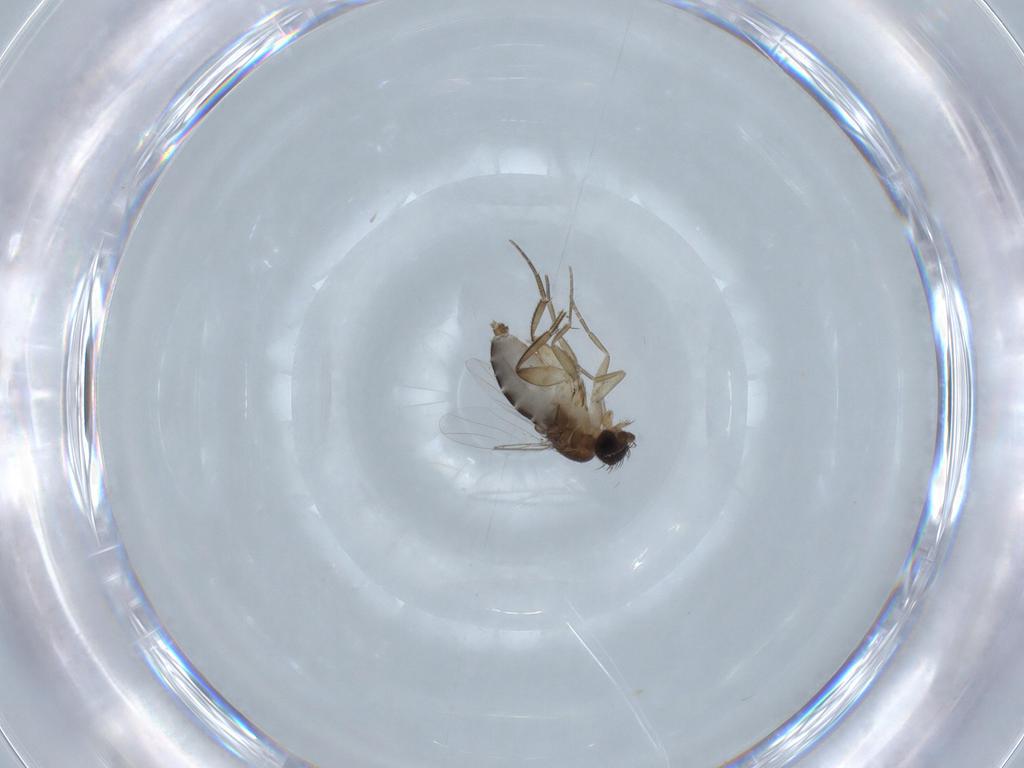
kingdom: Animalia
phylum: Arthropoda
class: Insecta
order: Diptera
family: Phoridae
